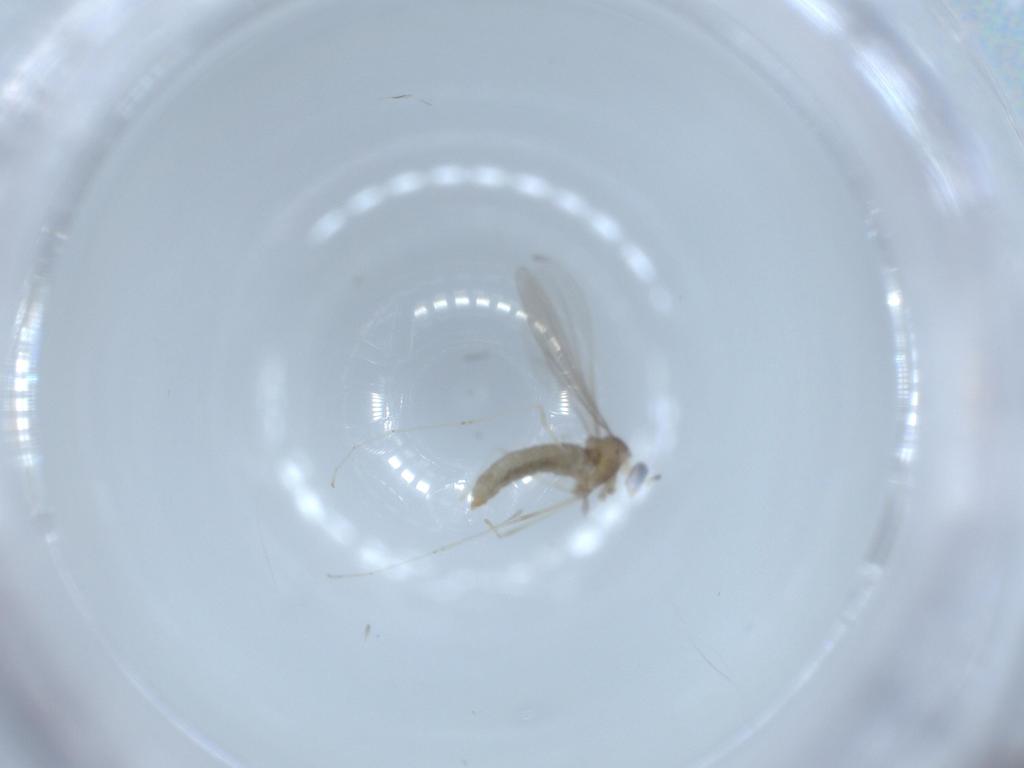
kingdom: Animalia
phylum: Arthropoda
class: Insecta
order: Diptera
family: Cecidomyiidae
